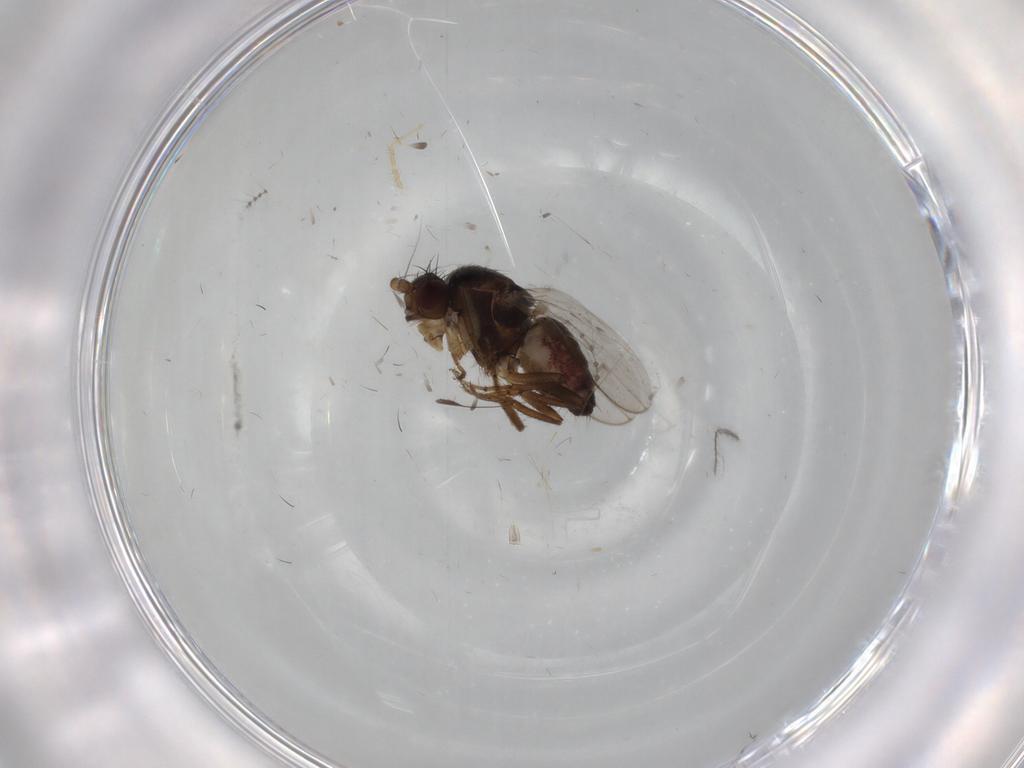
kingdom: Animalia
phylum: Arthropoda
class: Insecta
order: Diptera
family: Sphaeroceridae
